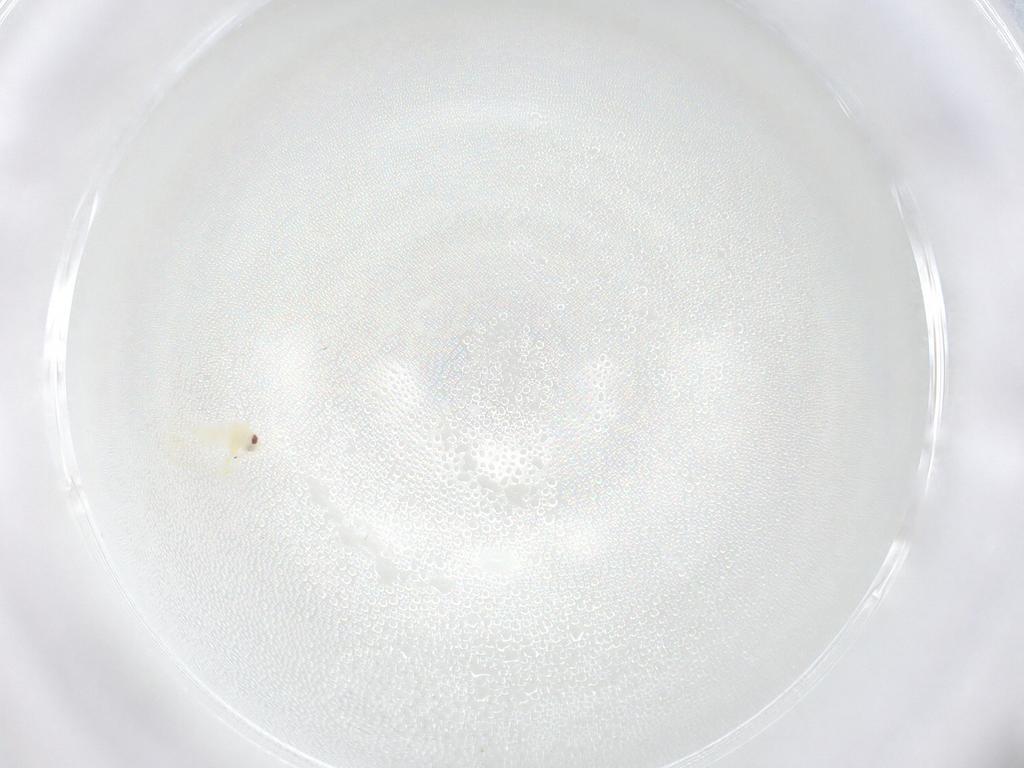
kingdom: Animalia
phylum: Arthropoda
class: Insecta
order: Hemiptera
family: Aleyrodidae
